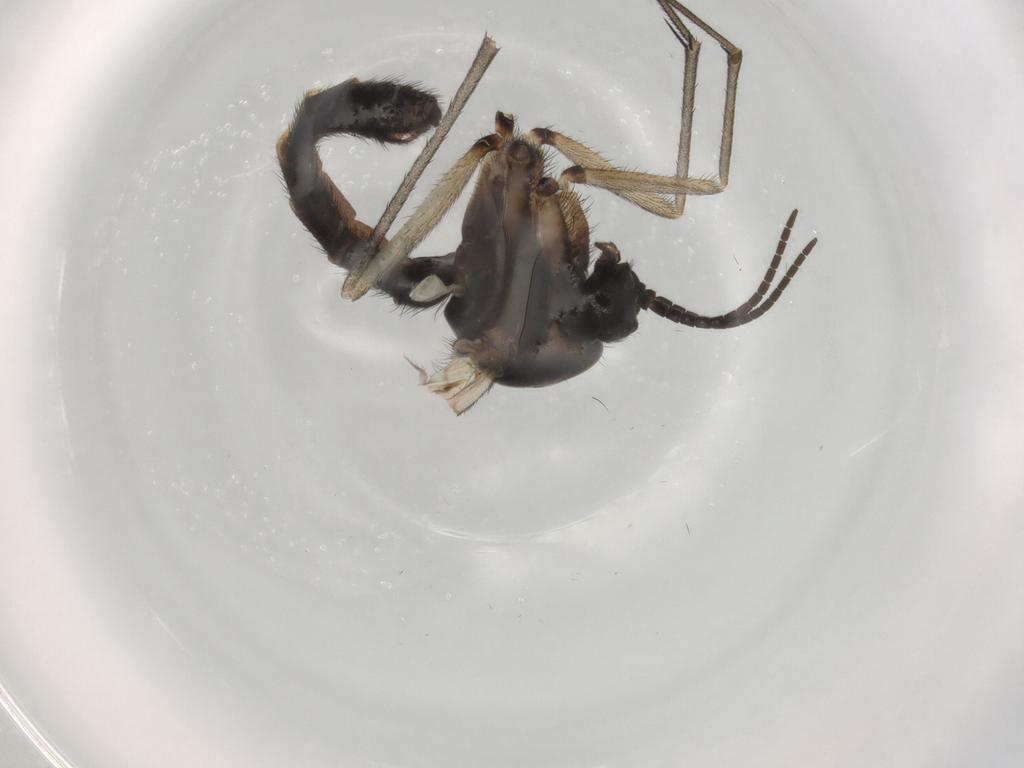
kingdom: Animalia
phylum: Arthropoda
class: Insecta
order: Diptera
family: Keroplatidae
